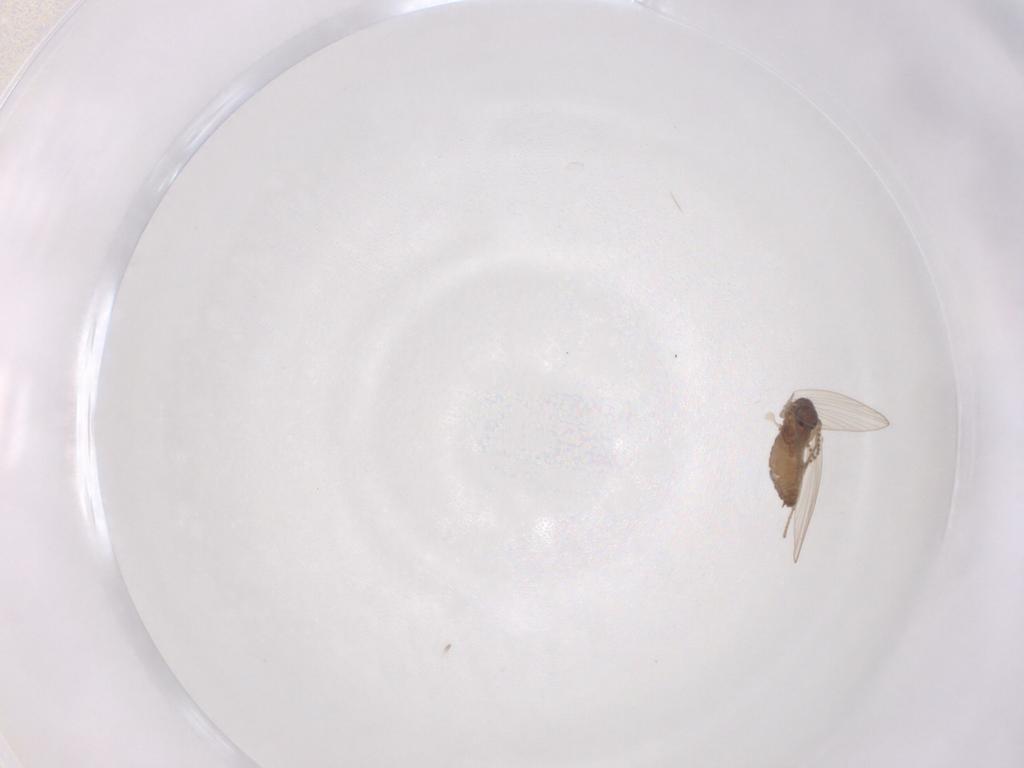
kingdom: Animalia
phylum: Arthropoda
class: Insecta
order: Diptera
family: Psychodidae
